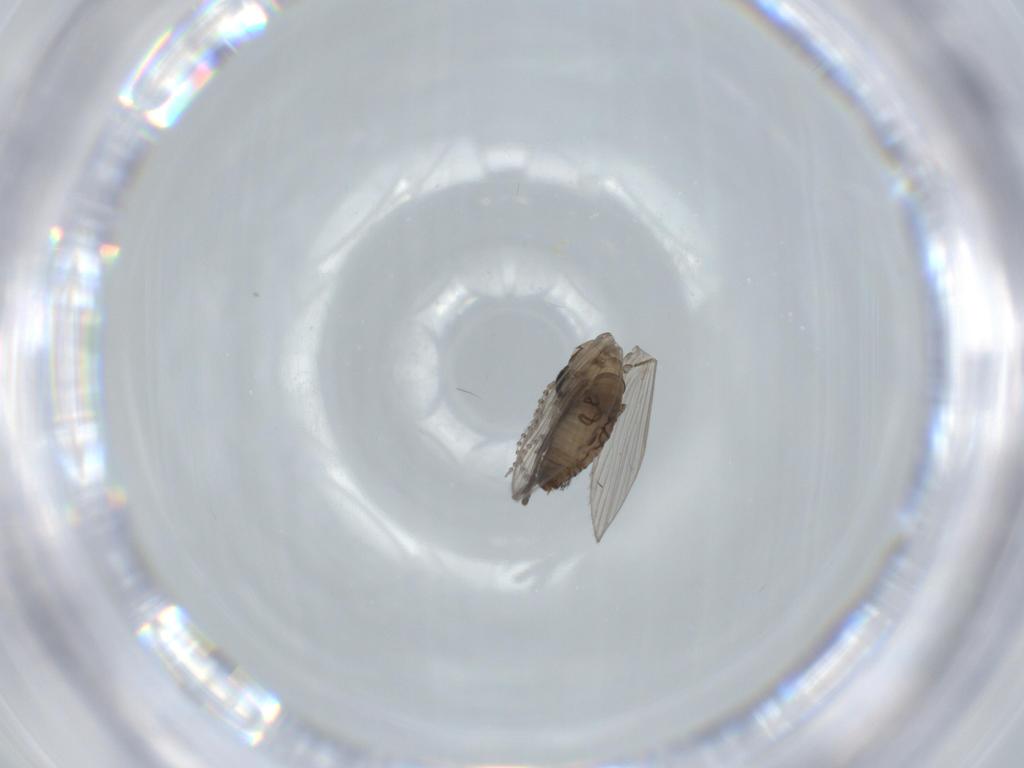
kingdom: Animalia
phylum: Arthropoda
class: Insecta
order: Diptera
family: Psychodidae
